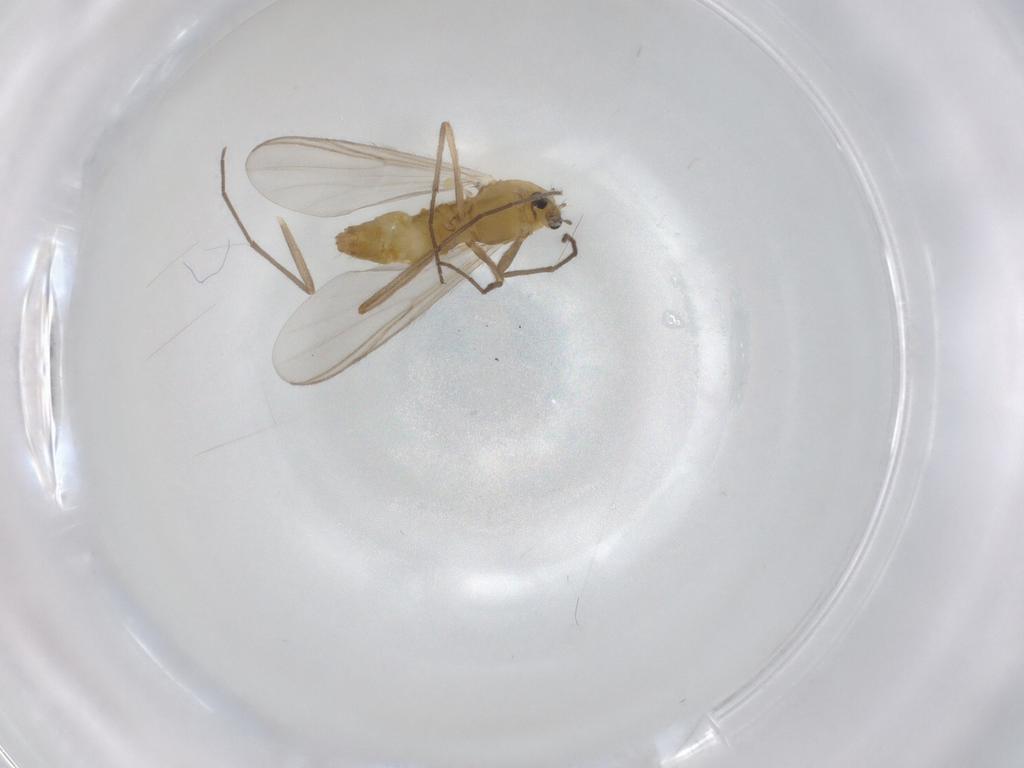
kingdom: Animalia
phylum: Arthropoda
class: Insecta
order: Diptera
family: Chironomidae
